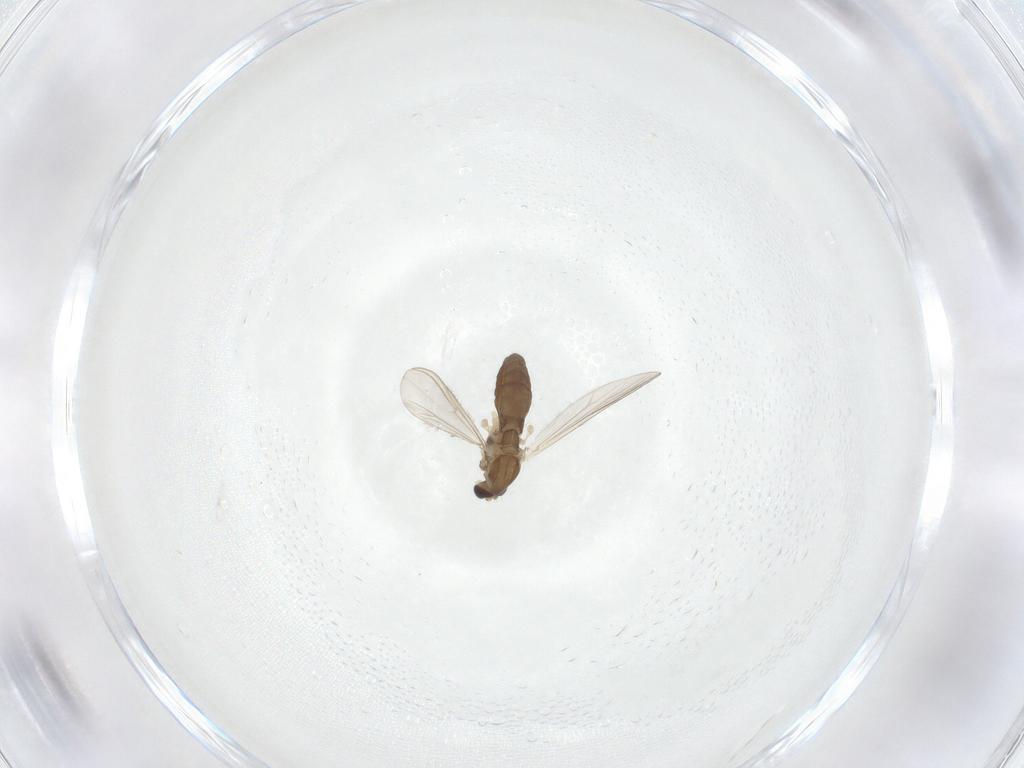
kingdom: Animalia
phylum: Arthropoda
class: Insecta
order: Diptera
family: Chironomidae
